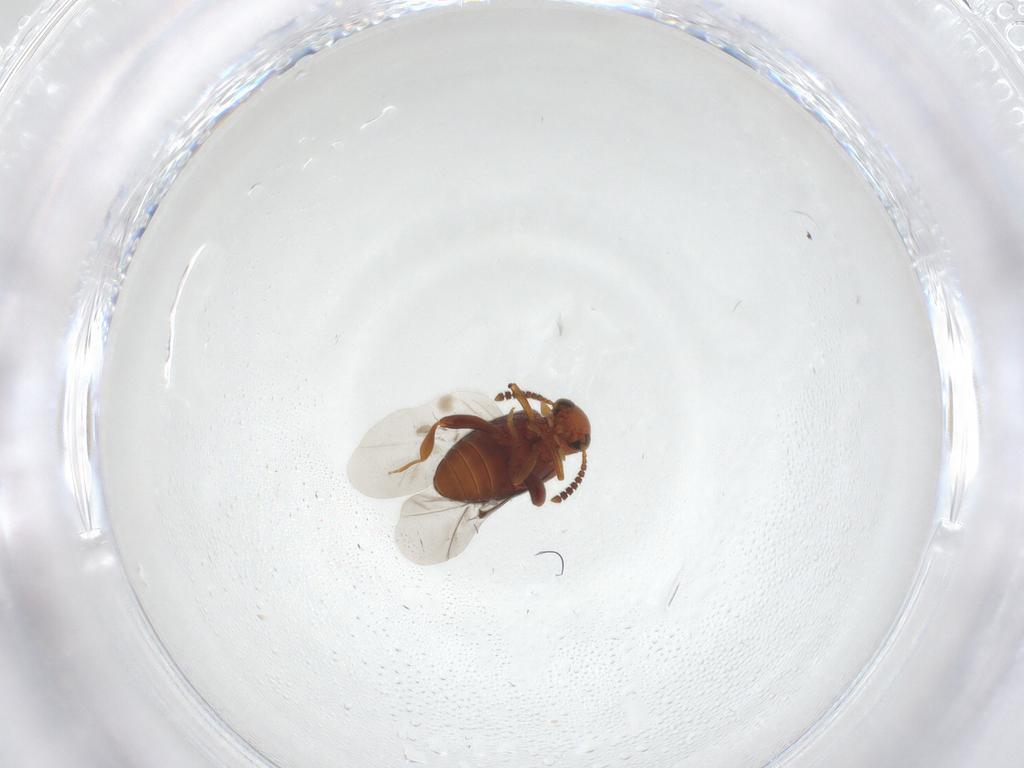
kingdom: Animalia
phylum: Arthropoda
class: Insecta
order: Coleoptera
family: Aderidae
